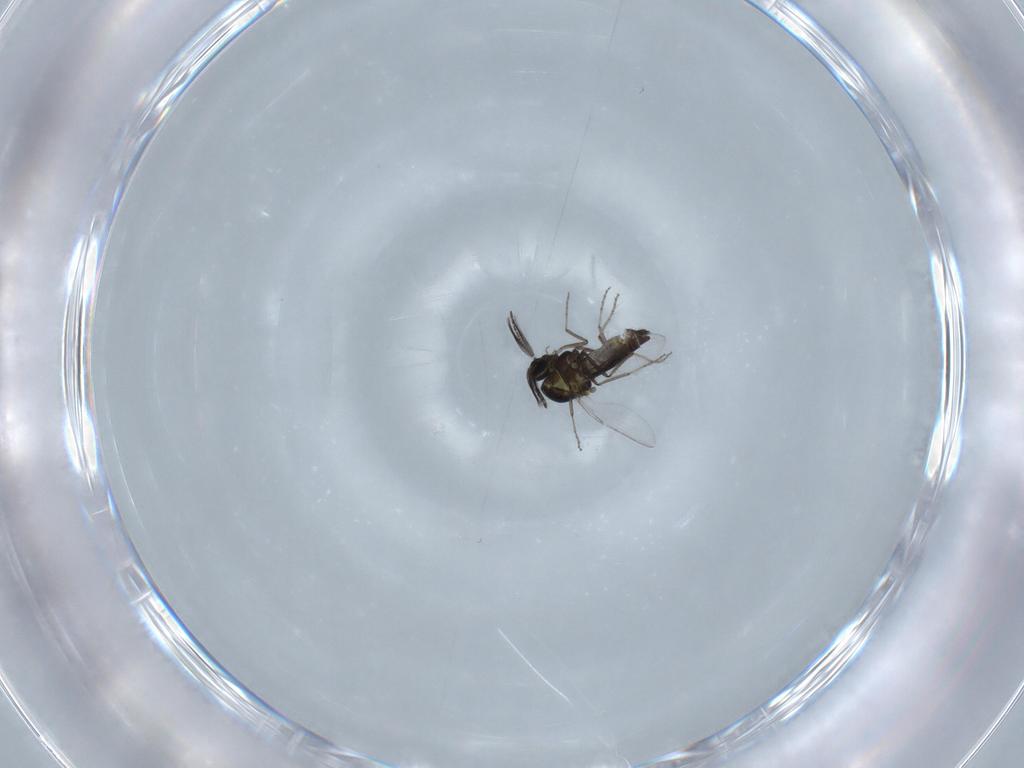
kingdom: Animalia
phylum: Arthropoda
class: Insecta
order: Diptera
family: Ceratopogonidae
